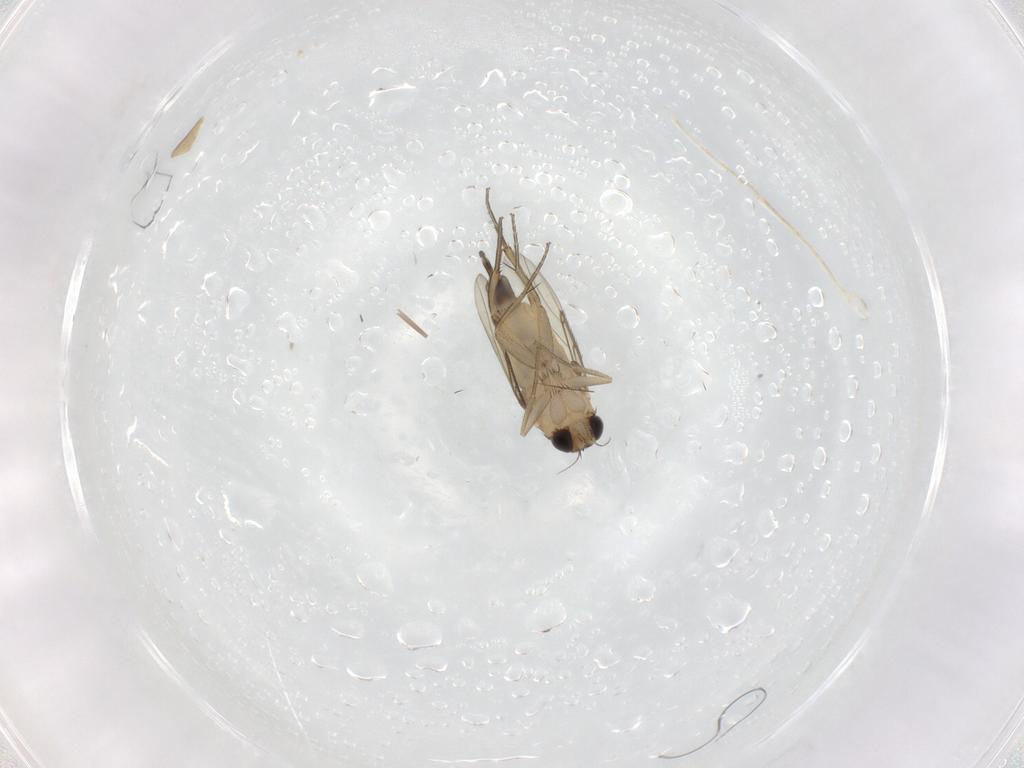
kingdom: Animalia
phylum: Arthropoda
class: Insecta
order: Diptera
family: Phoridae
